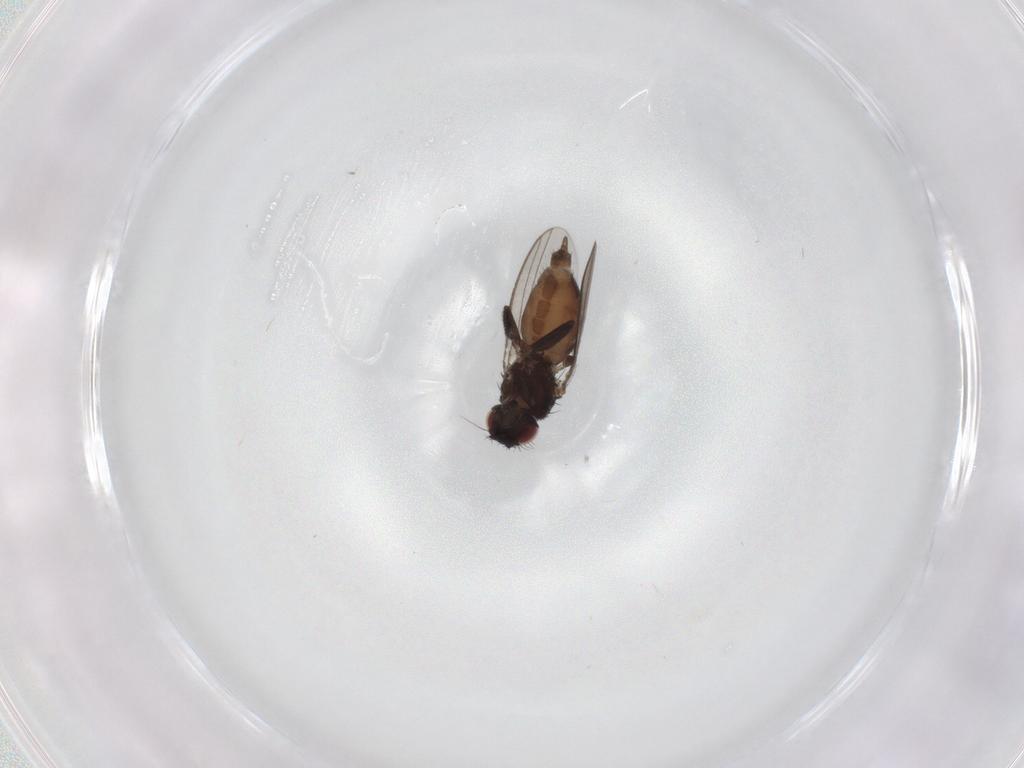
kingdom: Animalia
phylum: Arthropoda
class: Insecta
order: Diptera
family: Milichiidae
